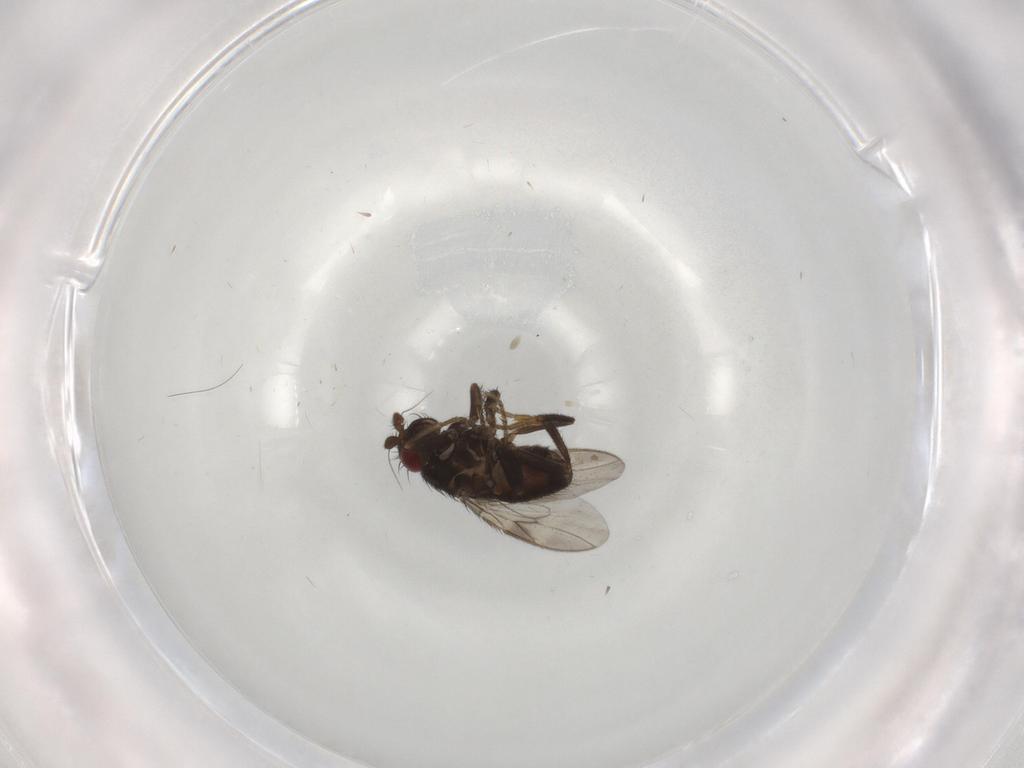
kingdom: Animalia
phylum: Arthropoda
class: Insecta
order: Diptera
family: Sphaeroceridae
